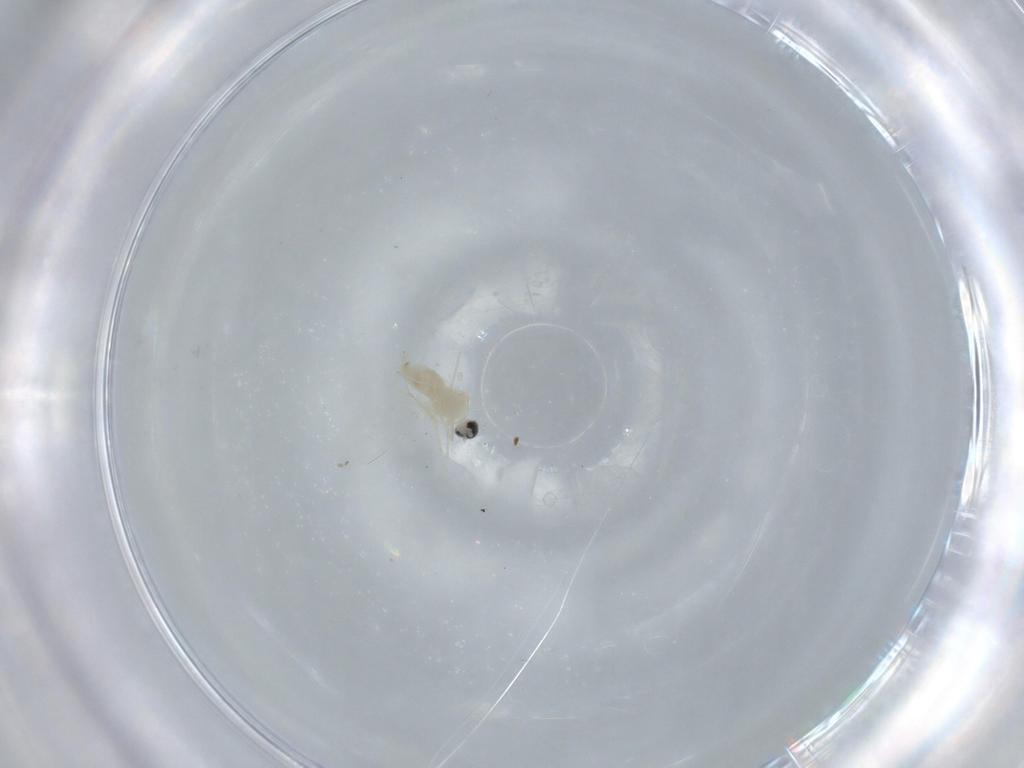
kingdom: Animalia
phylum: Arthropoda
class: Insecta
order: Diptera
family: Cecidomyiidae
